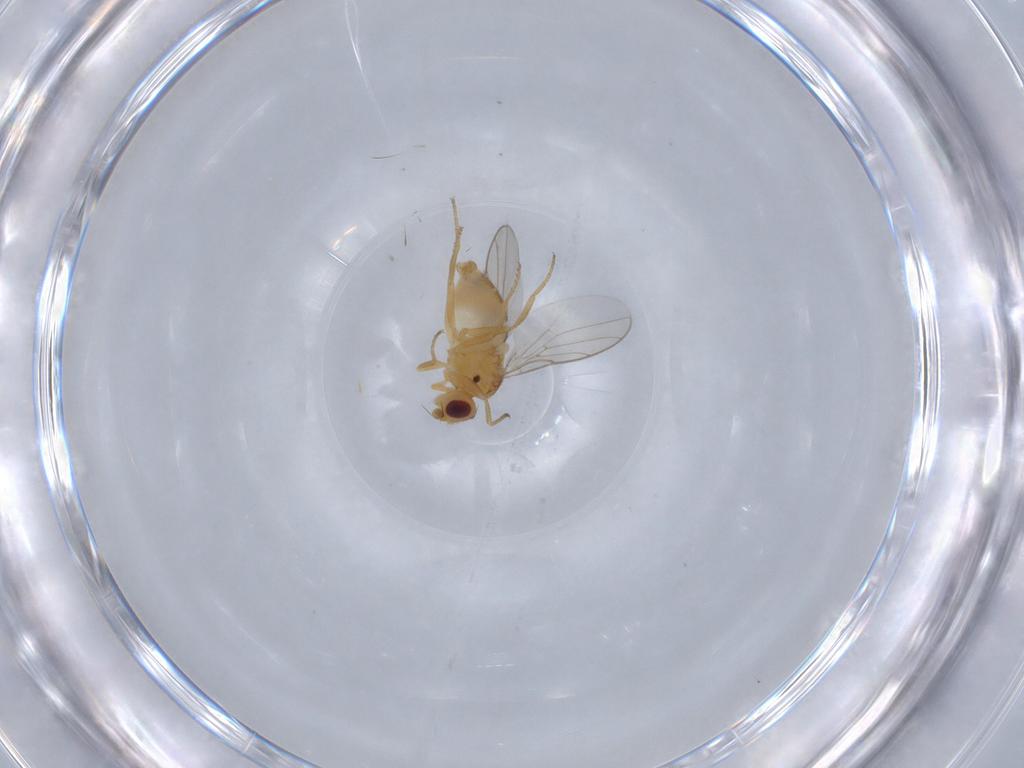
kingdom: Animalia
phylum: Arthropoda
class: Insecta
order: Diptera
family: Chloropidae
